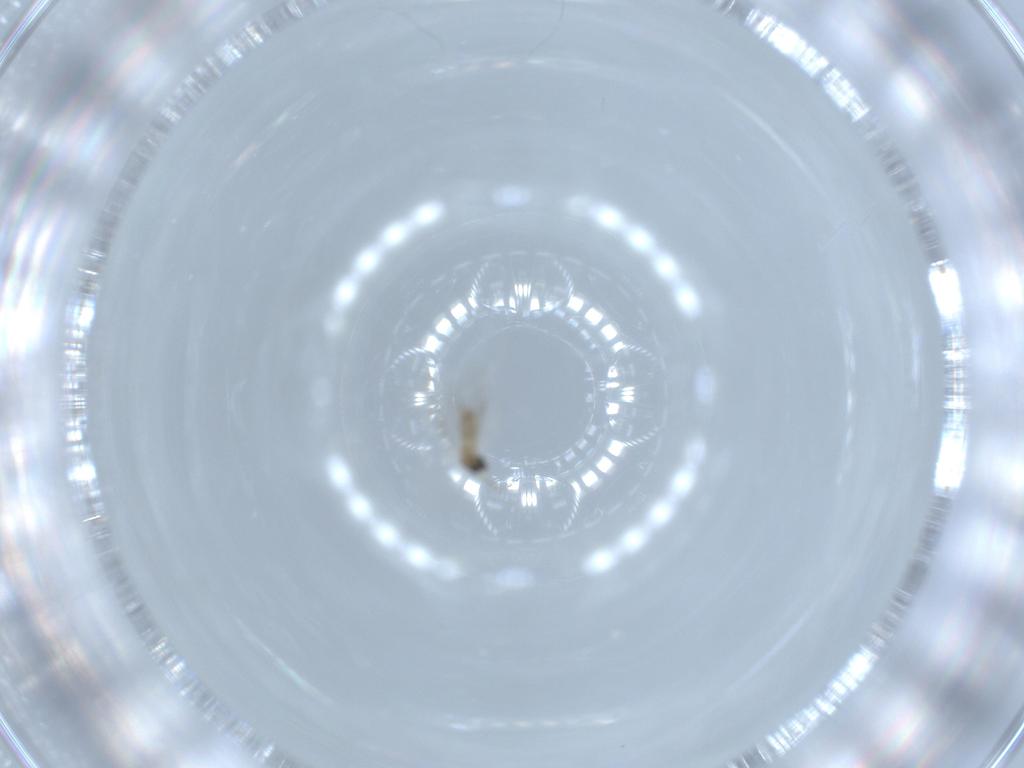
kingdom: Animalia
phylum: Arthropoda
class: Insecta
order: Diptera
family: Cecidomyiidae
